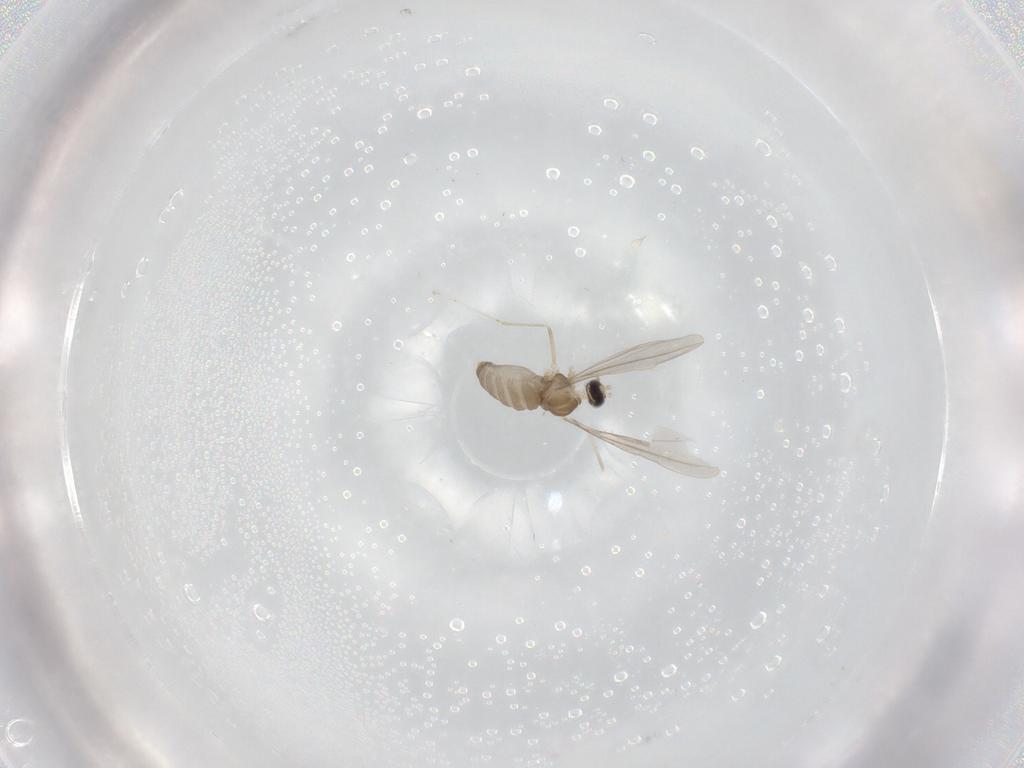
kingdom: Animalia
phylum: Arthropoda
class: Insecta
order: Diptera
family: Cecidomyiidae
